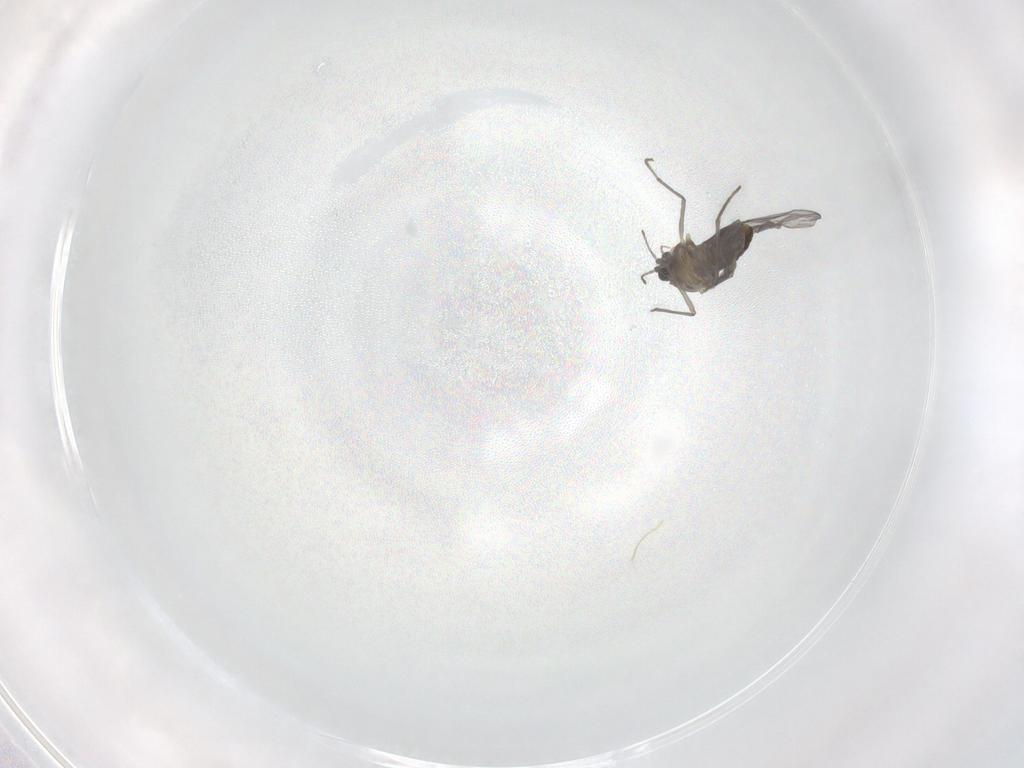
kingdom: Animalia
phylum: Arthropoda
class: Insecta
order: Diptera
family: Chironomidae
